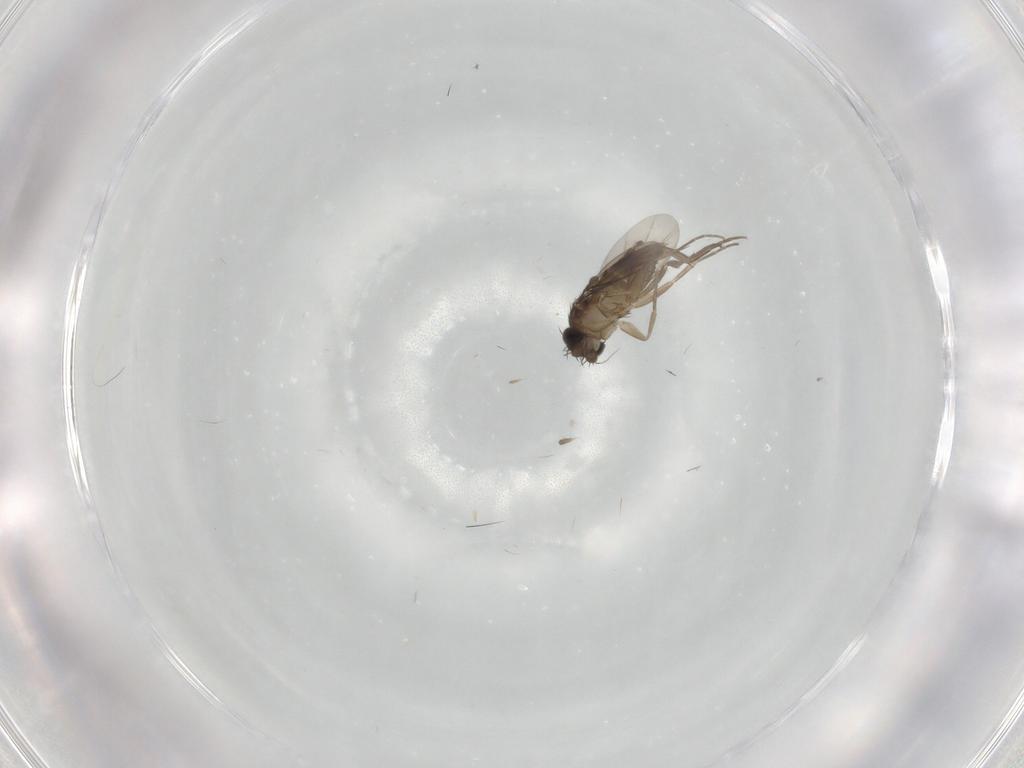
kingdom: Animalia
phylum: Arthropoda
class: Insecta
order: Diptera
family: Phoridae
